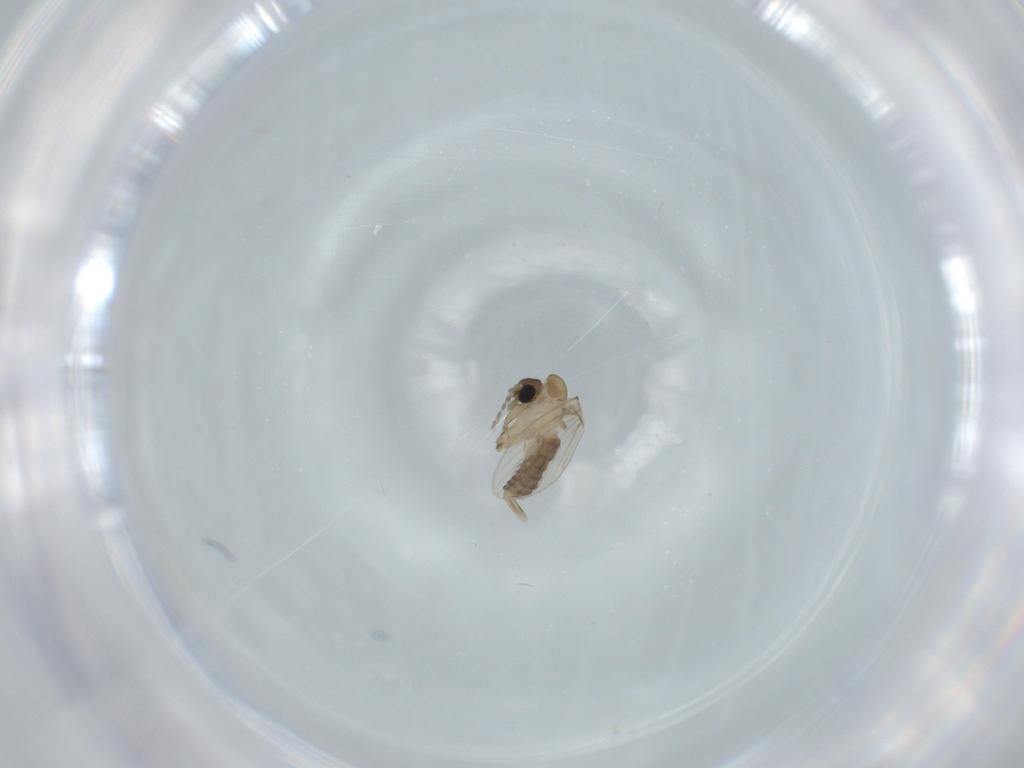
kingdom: Animalia
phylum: Arthropoda
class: Insecta
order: Diptera
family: Psychodidae
